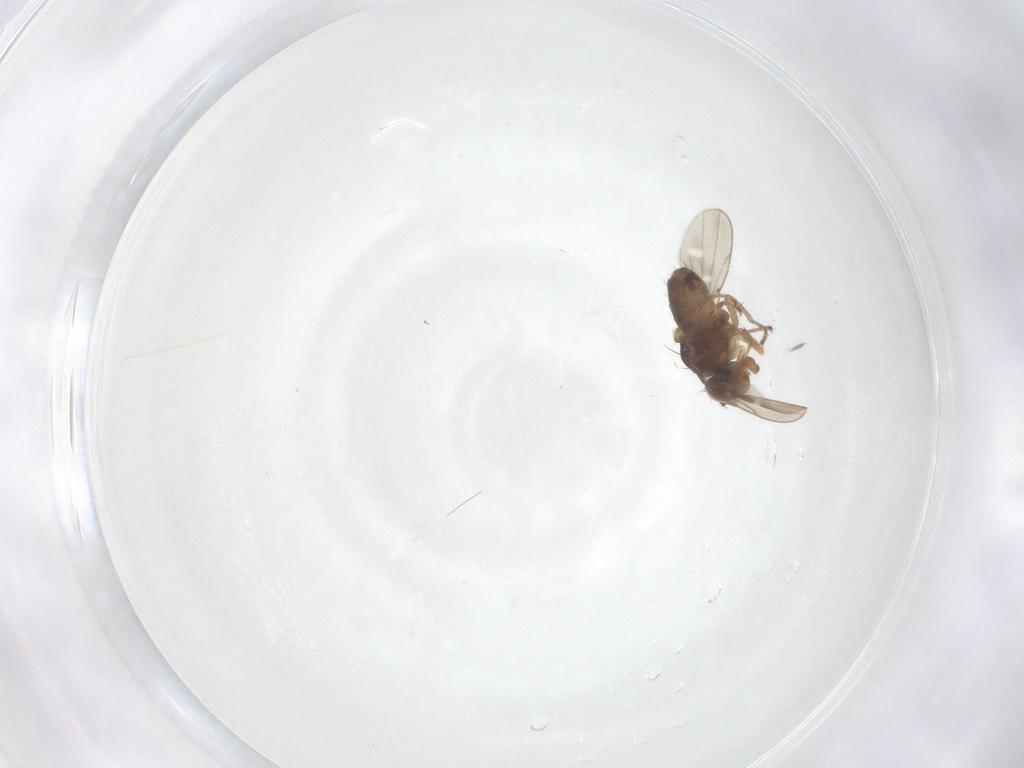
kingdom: Animalia
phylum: Arthropoda
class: Insecta
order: Diptera
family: Ephydridae
